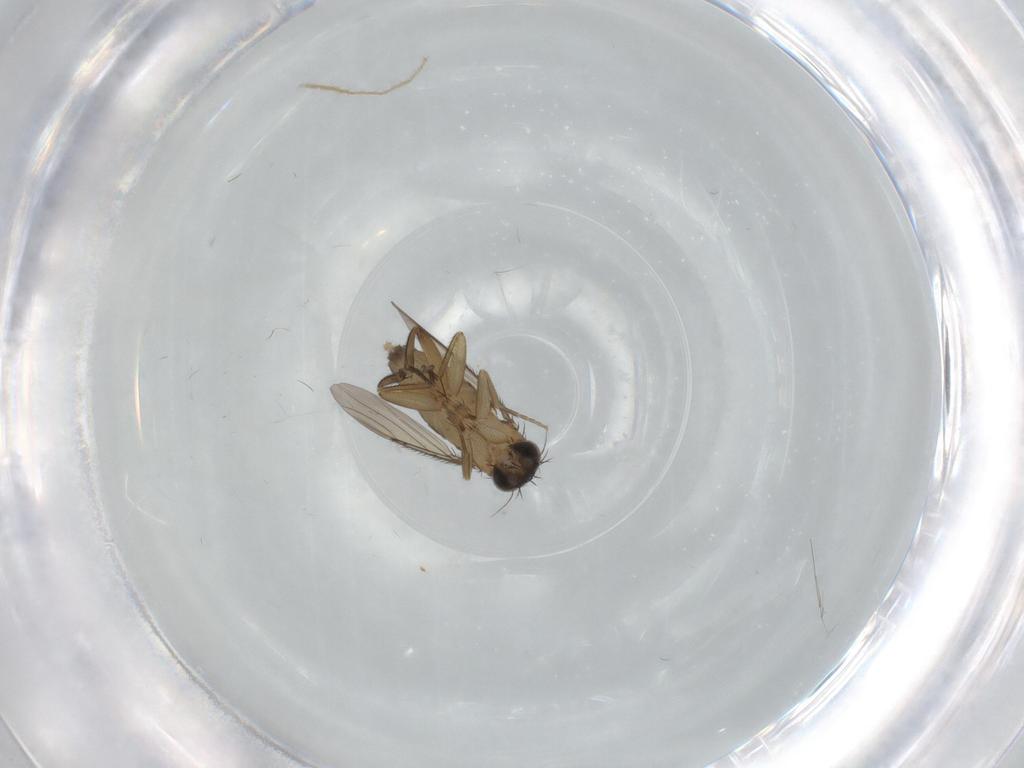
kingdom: Animalia
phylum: Arthropoda
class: Insecta
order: Diptera
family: Phoridae
